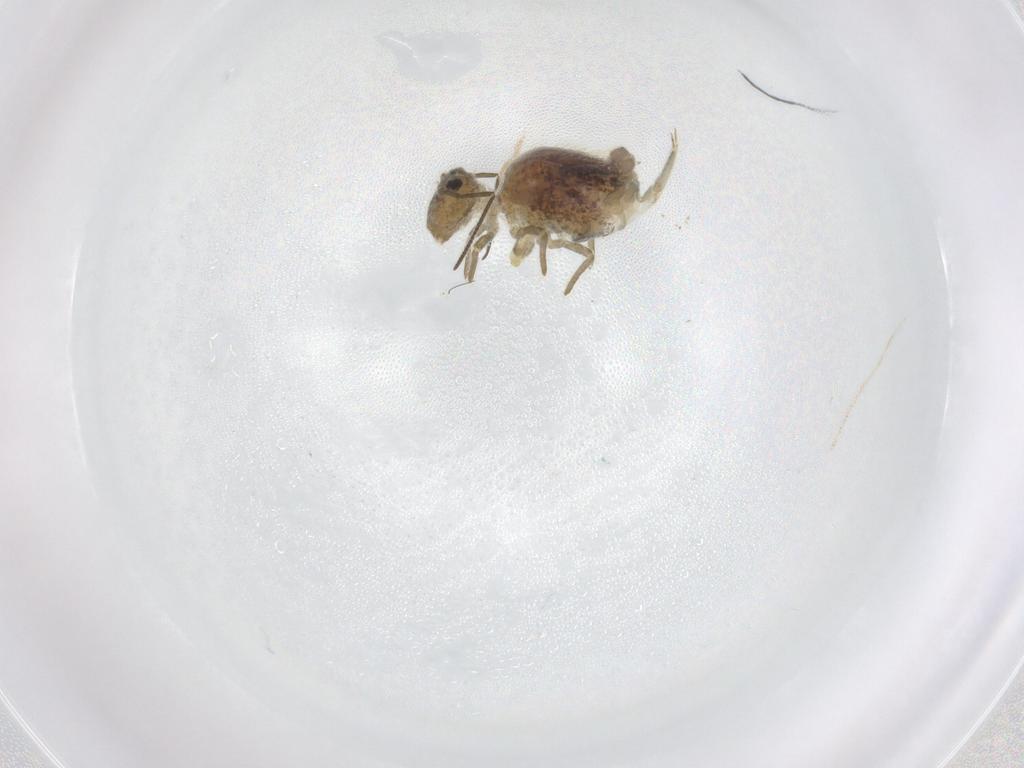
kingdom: Animalia
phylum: Arthropoda
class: Collembola
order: Symphypleona
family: Sminthuridae
